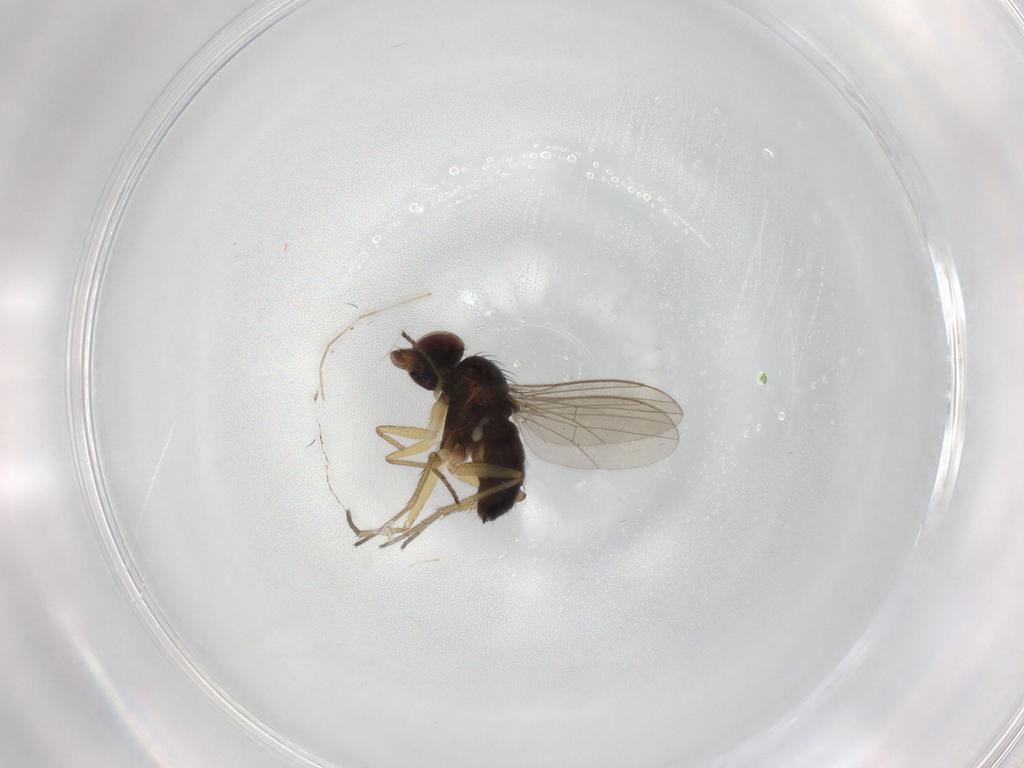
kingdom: Animalia
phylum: Arthropoda
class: Insecta
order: Diptera
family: Dolichopodidae
